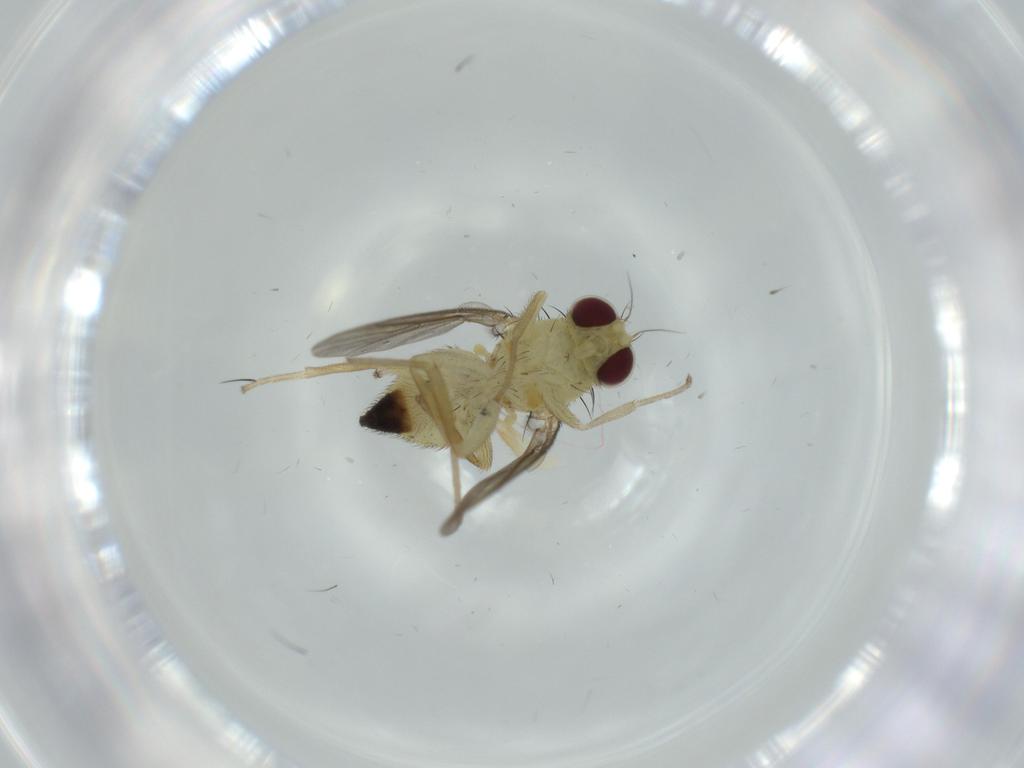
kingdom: Animalia
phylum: Arthropoda
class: Insecta
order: Diptera
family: Agromyzidae
